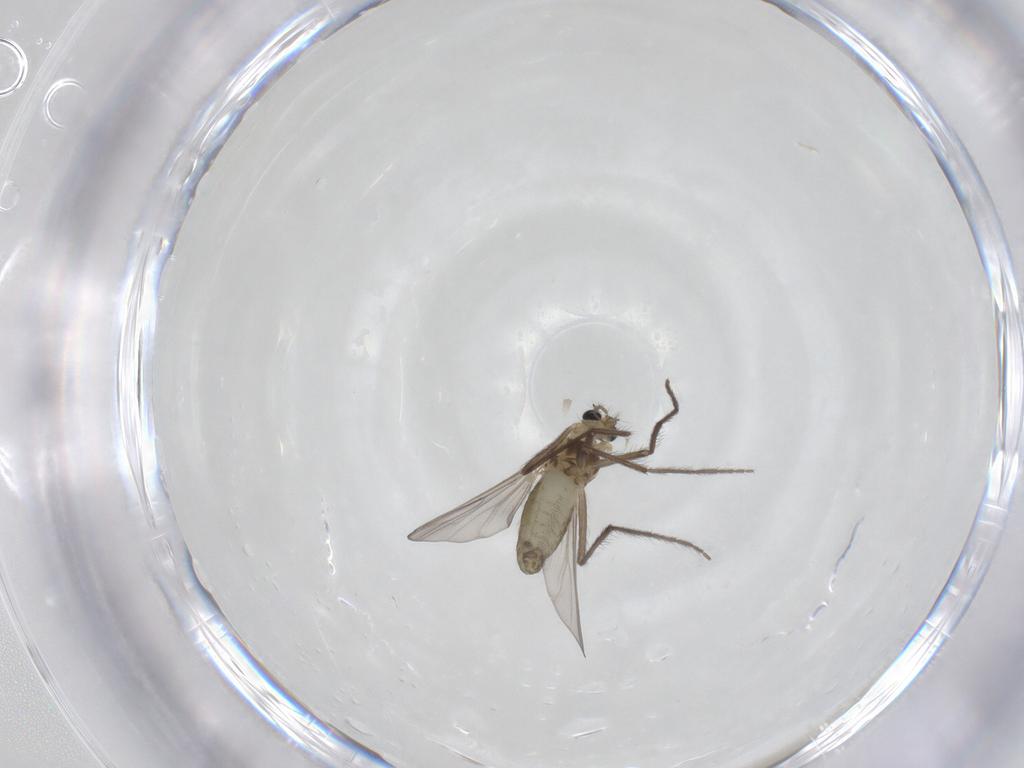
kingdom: Animalia
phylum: Arthropoda
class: Insecta
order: Diptera
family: Chironomidae
